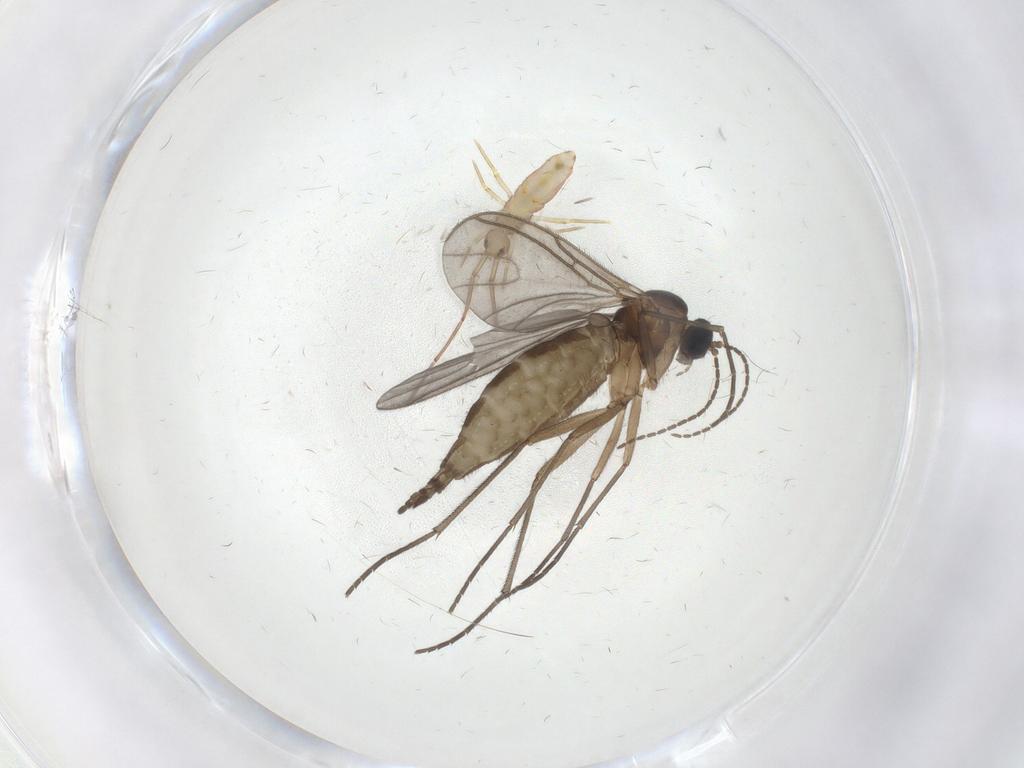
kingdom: Animalia
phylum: Arthropoda
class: Insecta
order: Diptera
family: Sciaridae
